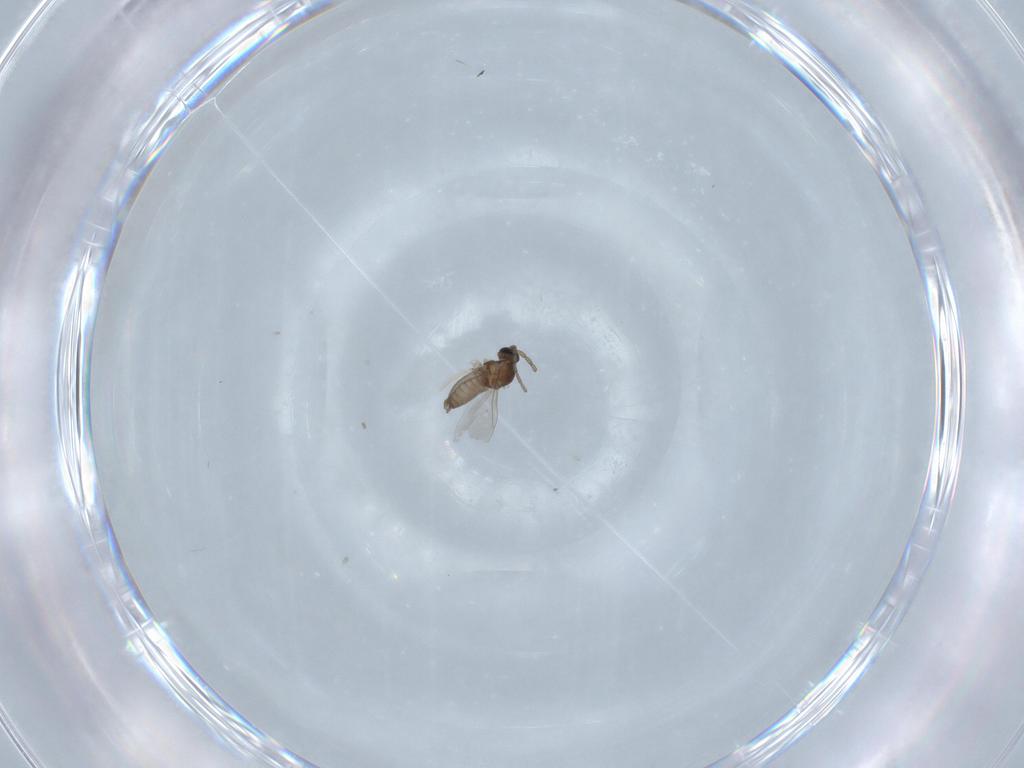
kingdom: Animalia
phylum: Arthropoda
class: Insecta
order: Diptera
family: Cecidomyiidae
